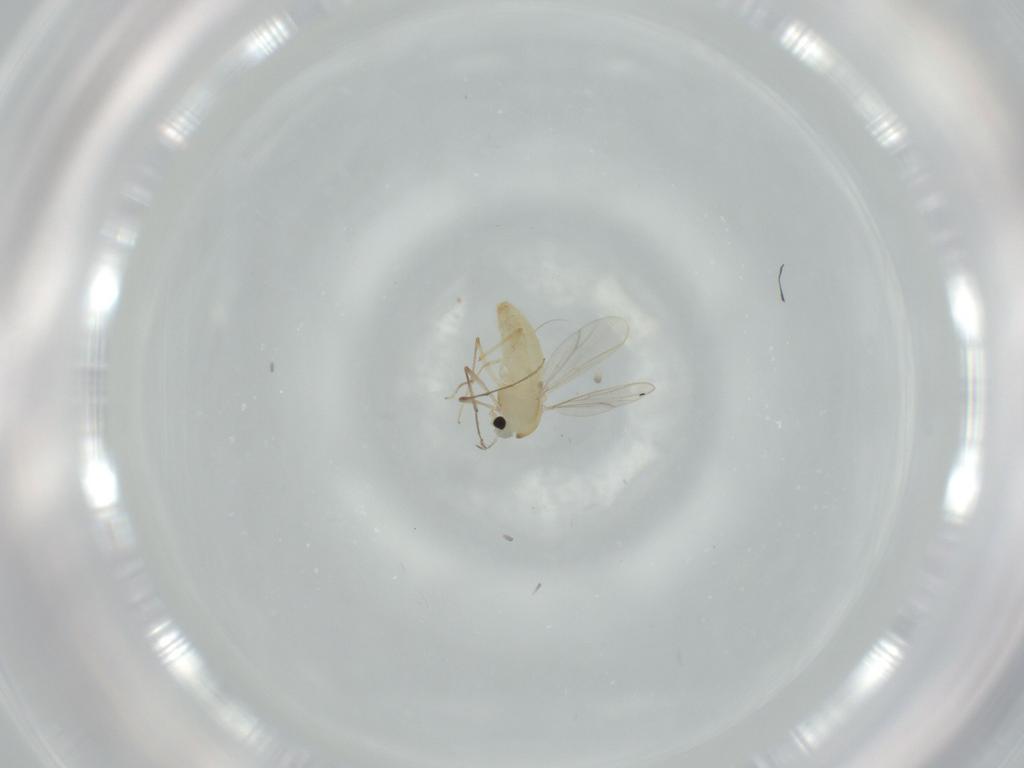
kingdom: Animalia
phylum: Arthropoda
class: Insecta
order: Diptera
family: Chironomidae
